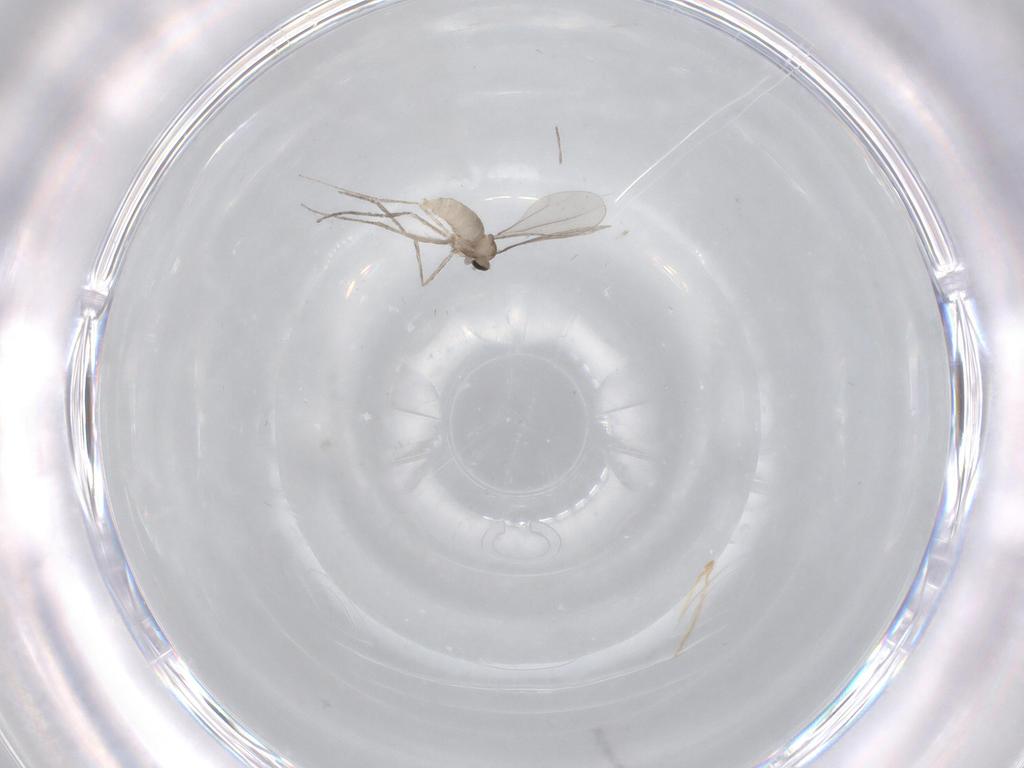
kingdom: Animalia
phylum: Arthropoda
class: Insecta
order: Diptera
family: Cecidomyiidae
